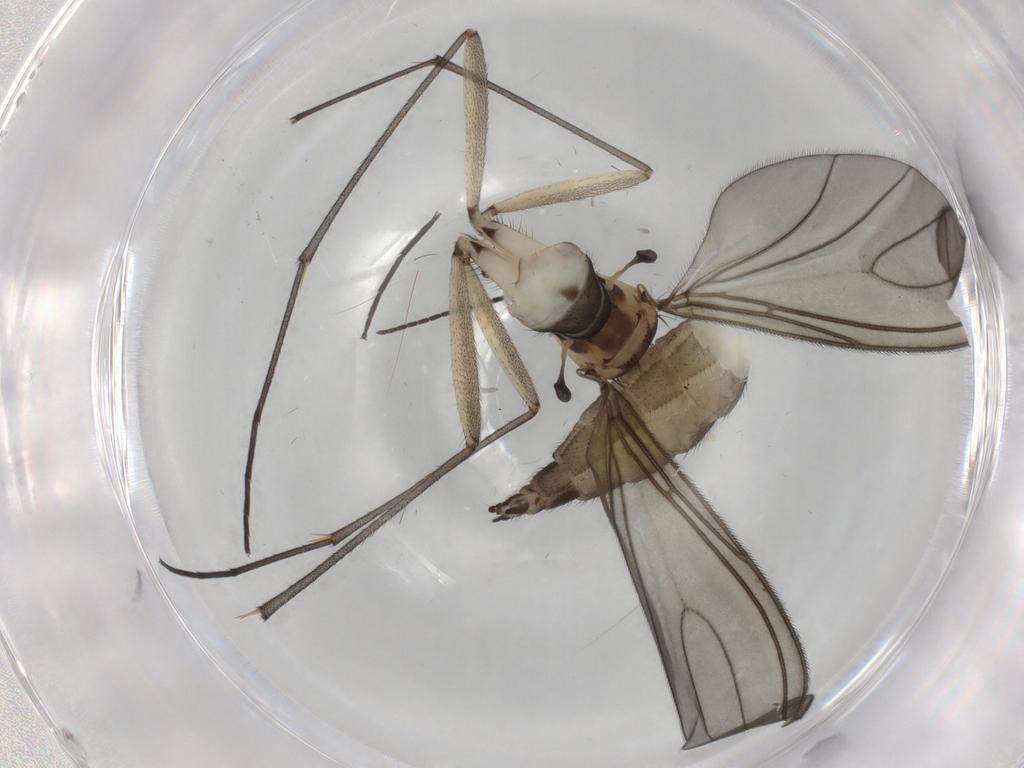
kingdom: Animalia
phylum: Arthropoda
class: Insecta
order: Diptera
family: Sciaridae
